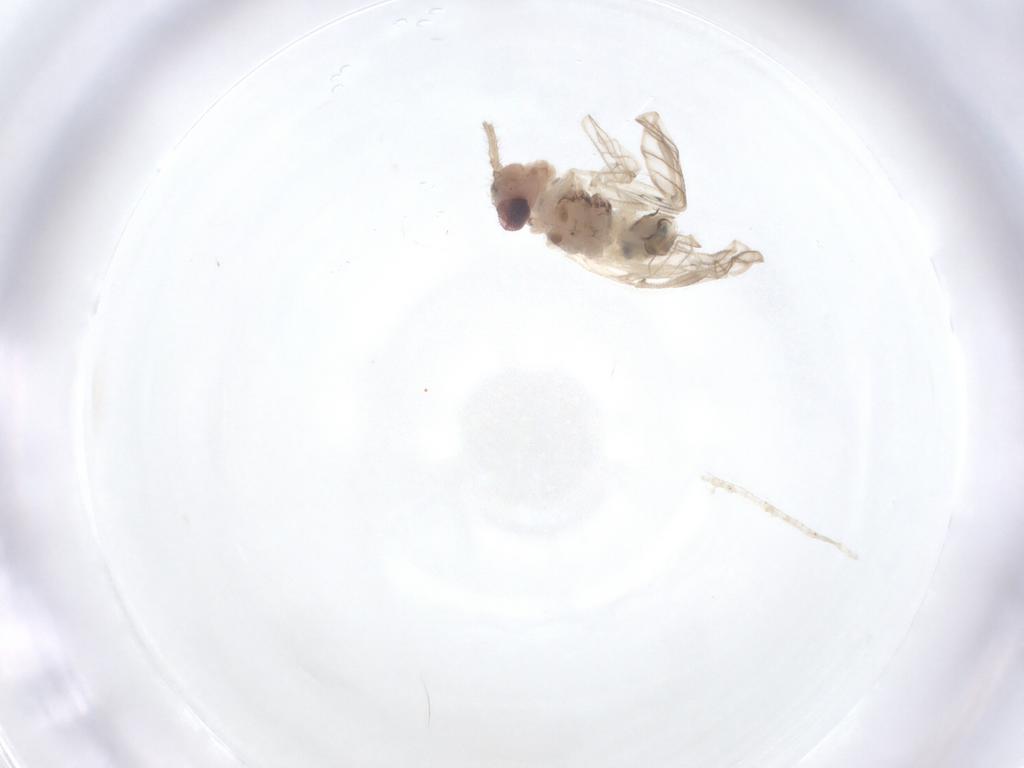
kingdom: Animalia
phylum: Arthropoda
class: Insecta
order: Psocodea
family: Caeciliusidae
